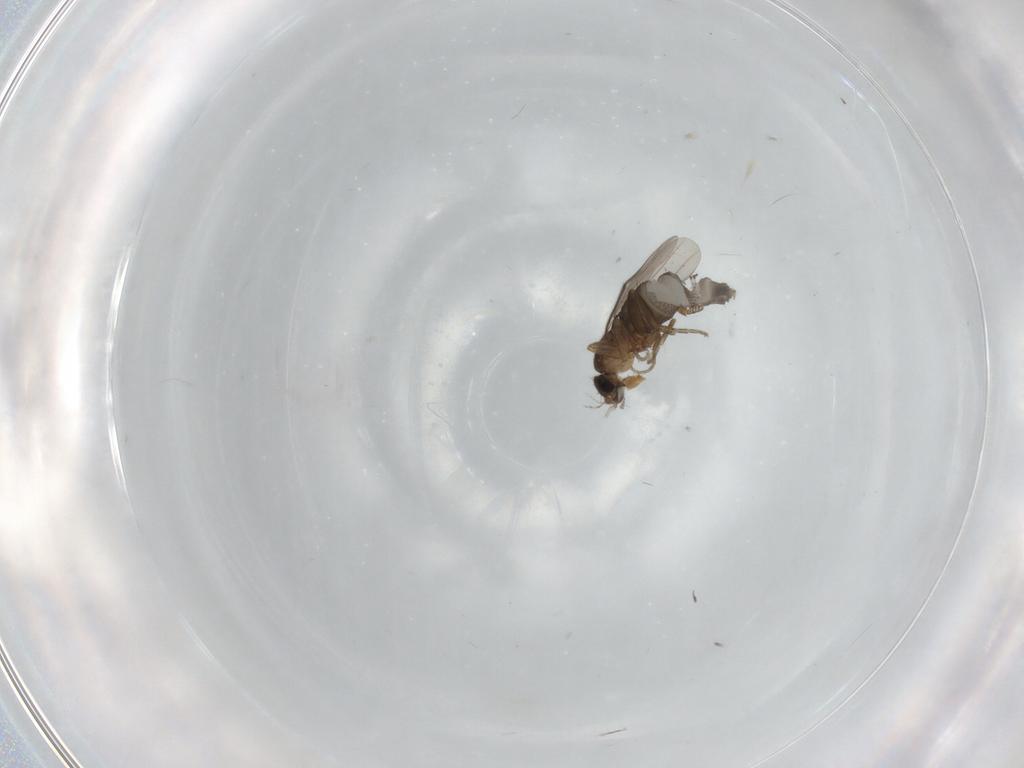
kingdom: Animalia
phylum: Arthropoda
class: Insecta
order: Diptera
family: Phoridae
